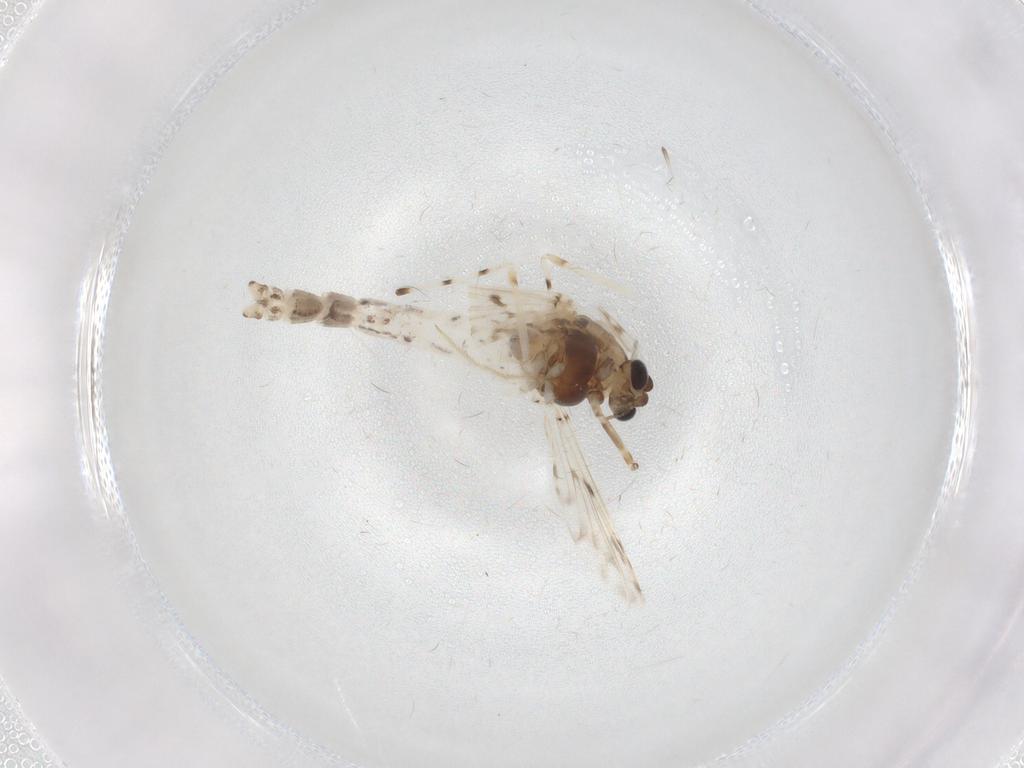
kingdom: Animalia
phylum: Arthropoda
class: Insecta
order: Diptera
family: Chironomidae
